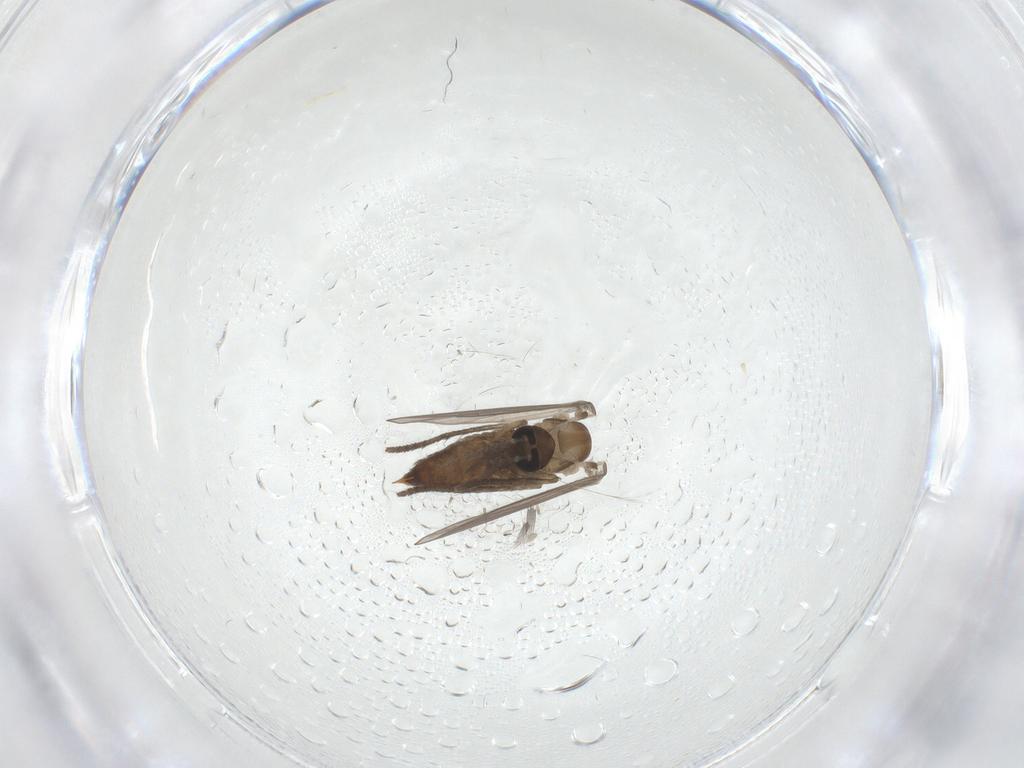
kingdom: Animalia
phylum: Arthropoda
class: Insecta
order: Diptera
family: Psychodidae
